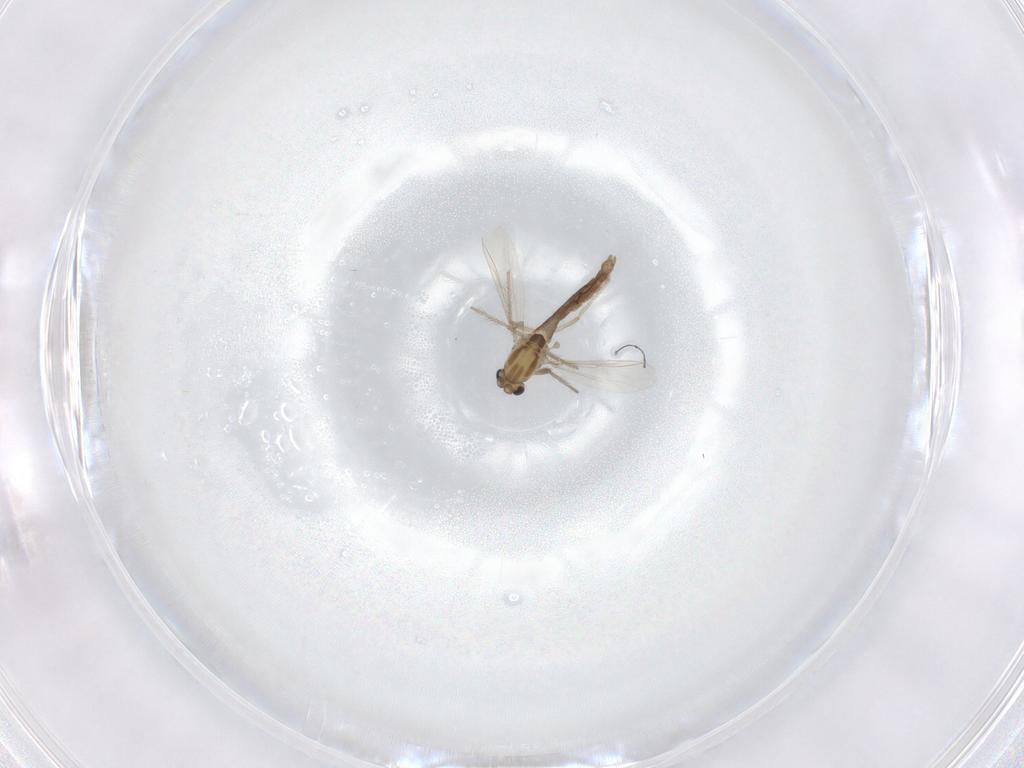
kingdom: Animalia
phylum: Arthropoda
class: Insecta
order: Diptera
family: Chironomidae
